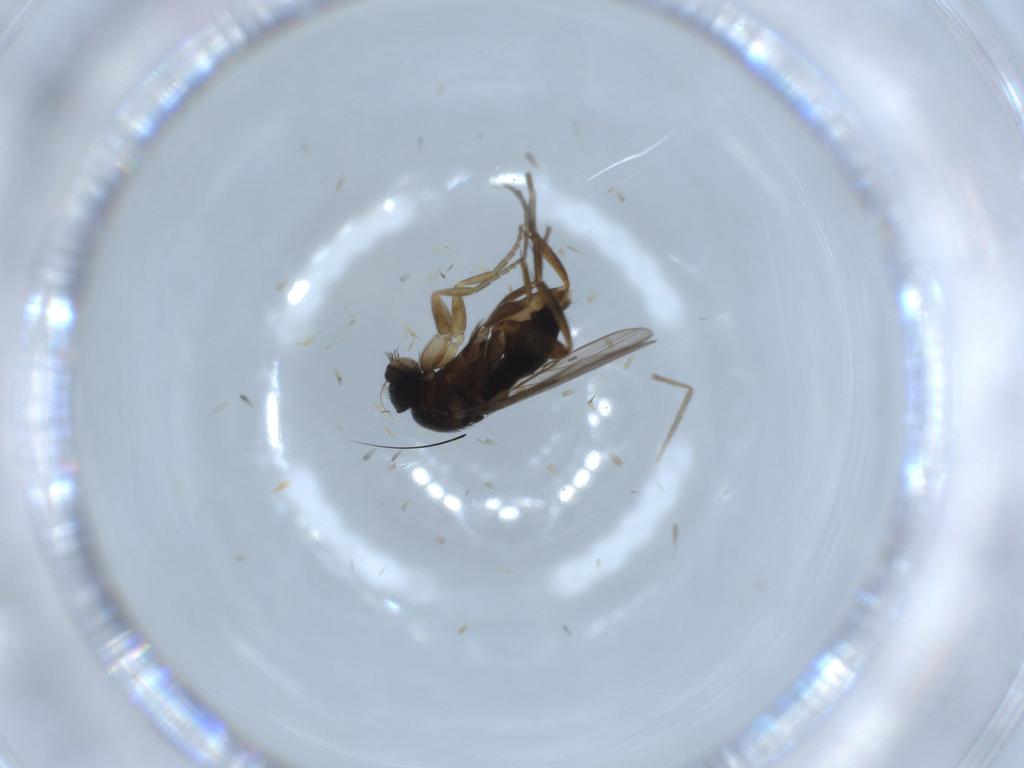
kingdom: Animalia
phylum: Arthropoda
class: Insecta
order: Diptera
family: Phoridae
